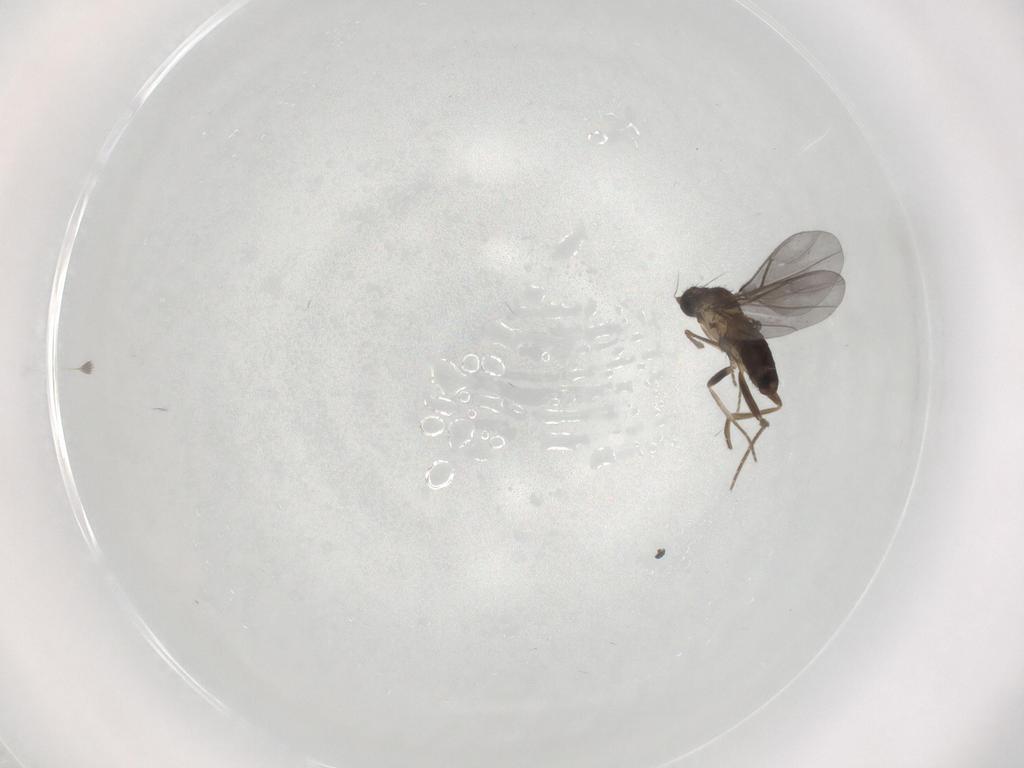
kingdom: Animalia
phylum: Arthropoda
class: Insecta
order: Diptera
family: Phoridae
